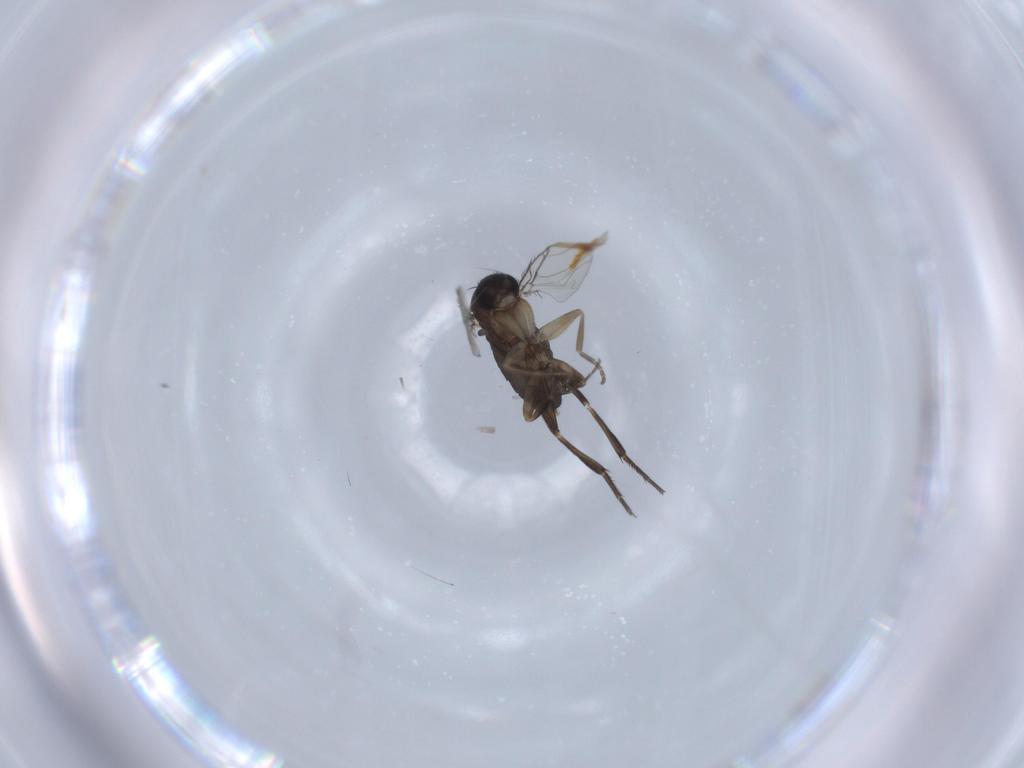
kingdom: Animalia
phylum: Arthropoda
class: Insecta
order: Diptera
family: Phoridae
